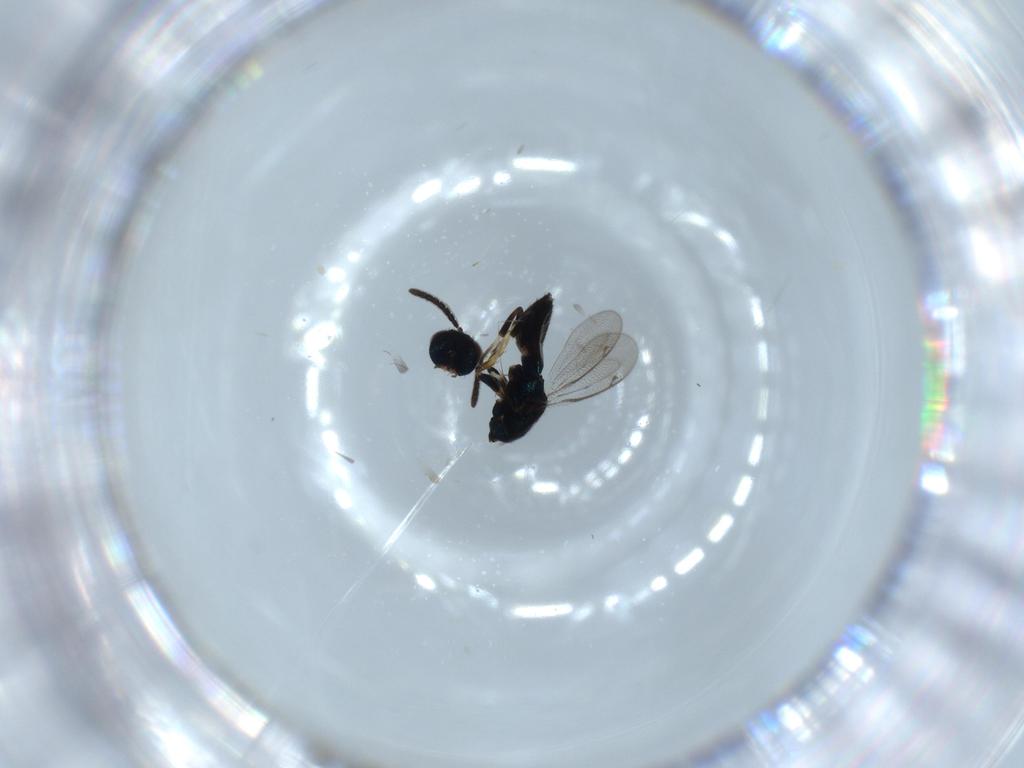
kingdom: Animalia
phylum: Arthropoda
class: Insecta
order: Hymenoptera
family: Eupelmidae
